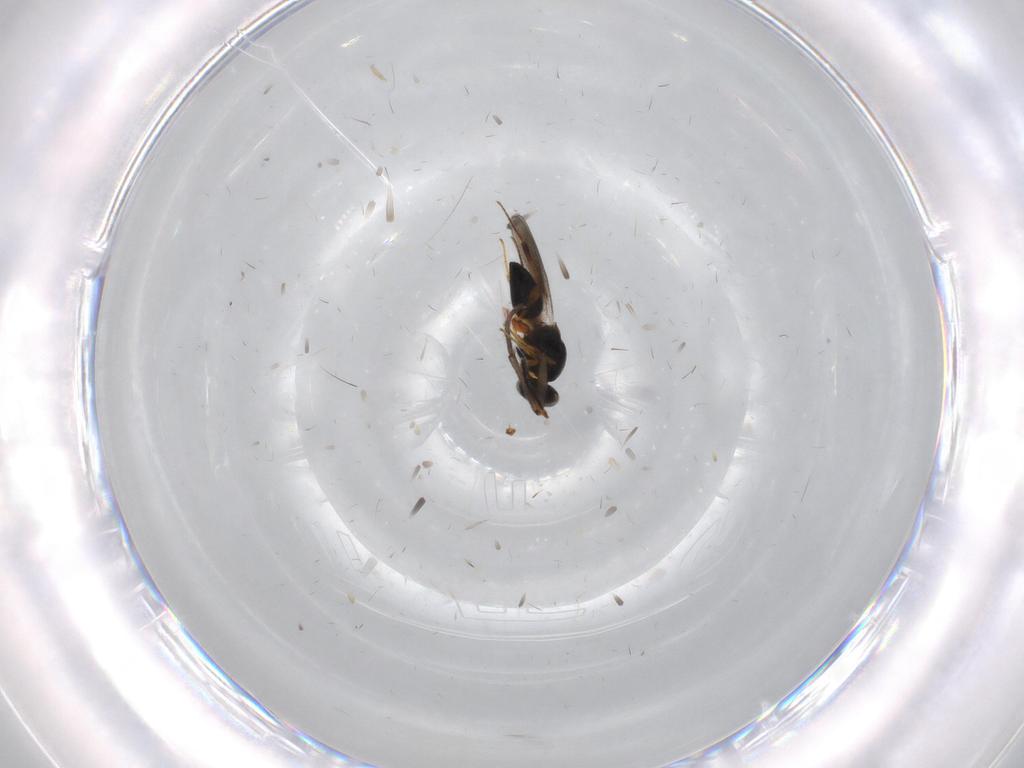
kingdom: Animalia
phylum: Arthropoda
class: Insecta
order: Hymenoptera
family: Platygastridae
